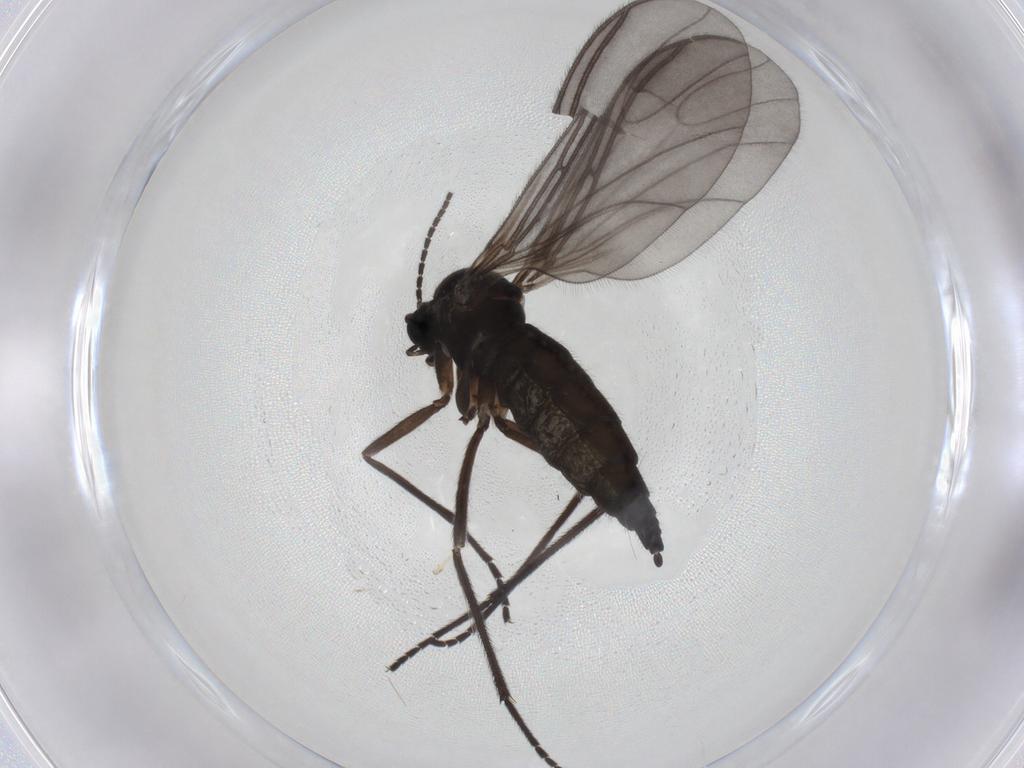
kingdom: Animalia
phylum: Arthropoda
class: Insecta
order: Diptera
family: Sciaridae
